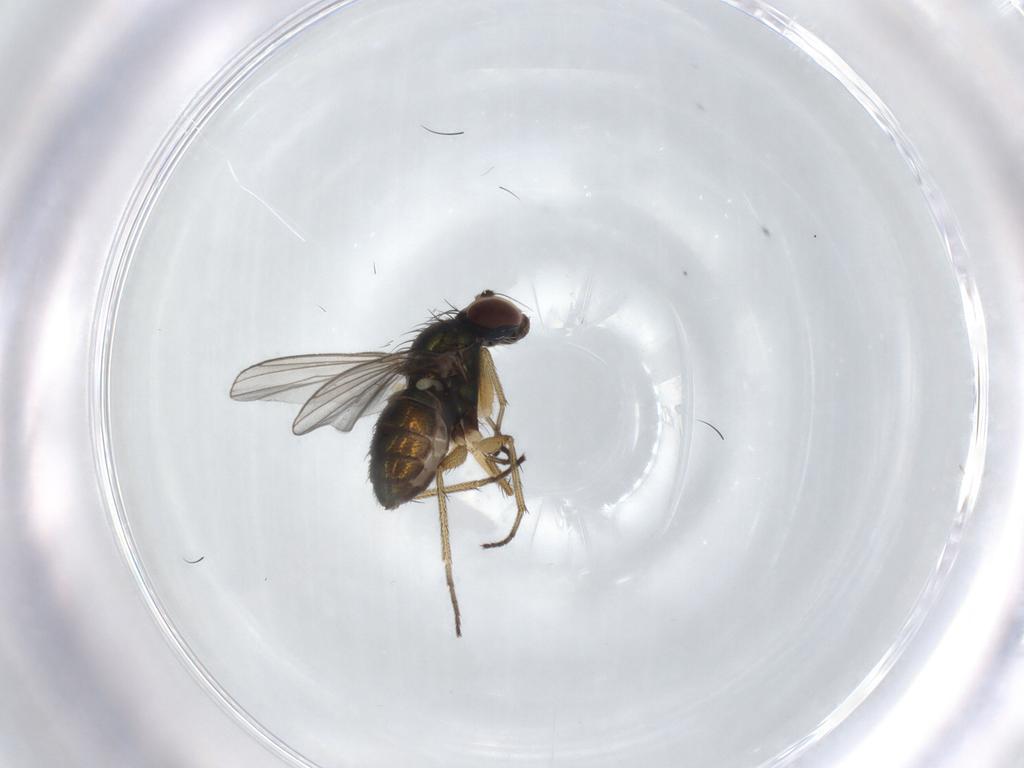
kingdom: Animalia
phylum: Arthropoda
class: Insecta
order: Diptera
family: Dolichopodidae
